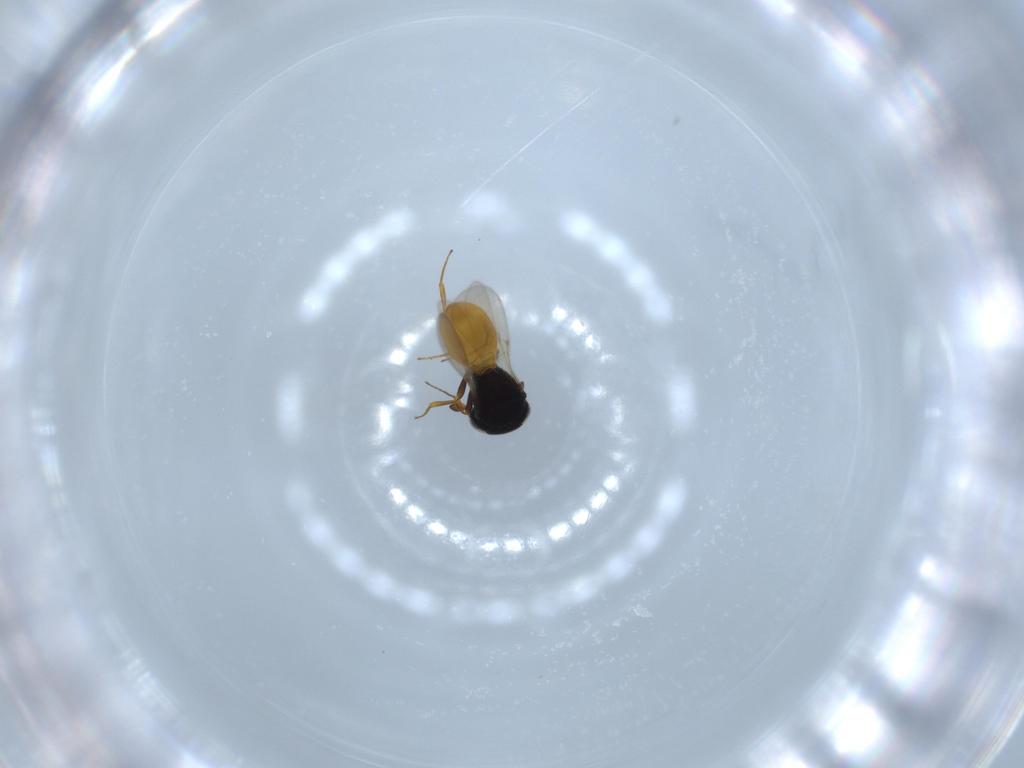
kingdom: Animalia
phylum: Arthropoda
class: Insecta
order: Hymenoptera
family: Scelionidae
